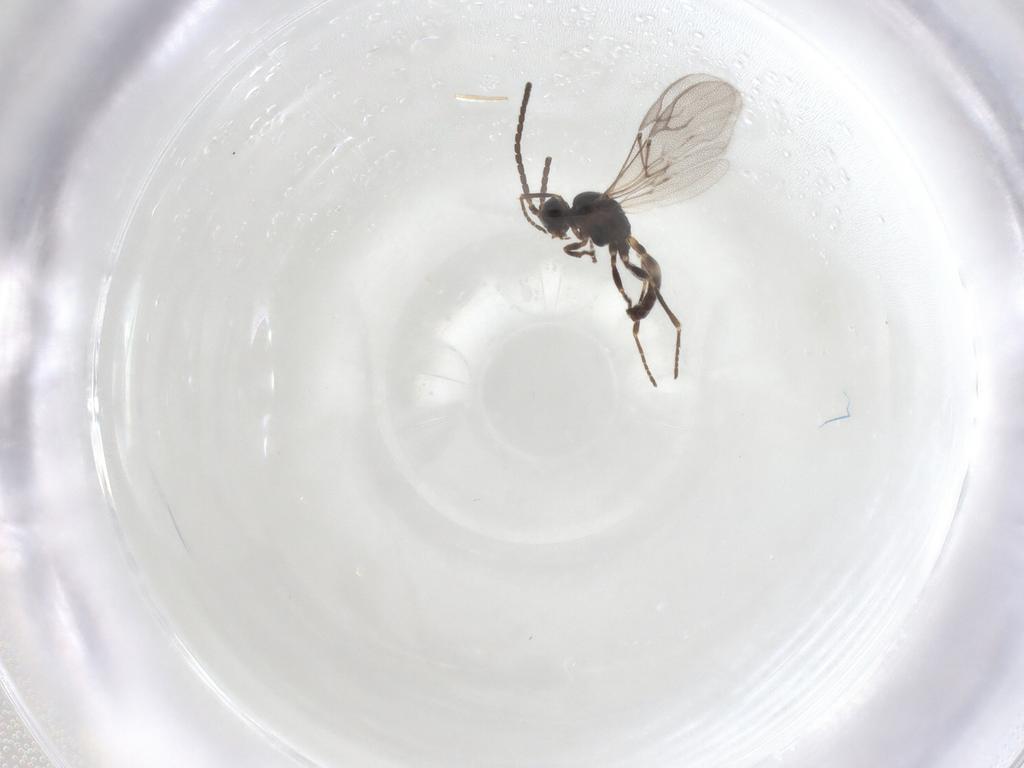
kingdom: Animalia
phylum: Arthropoda
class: Insecta
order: Hymenoptera
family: Braconidae
